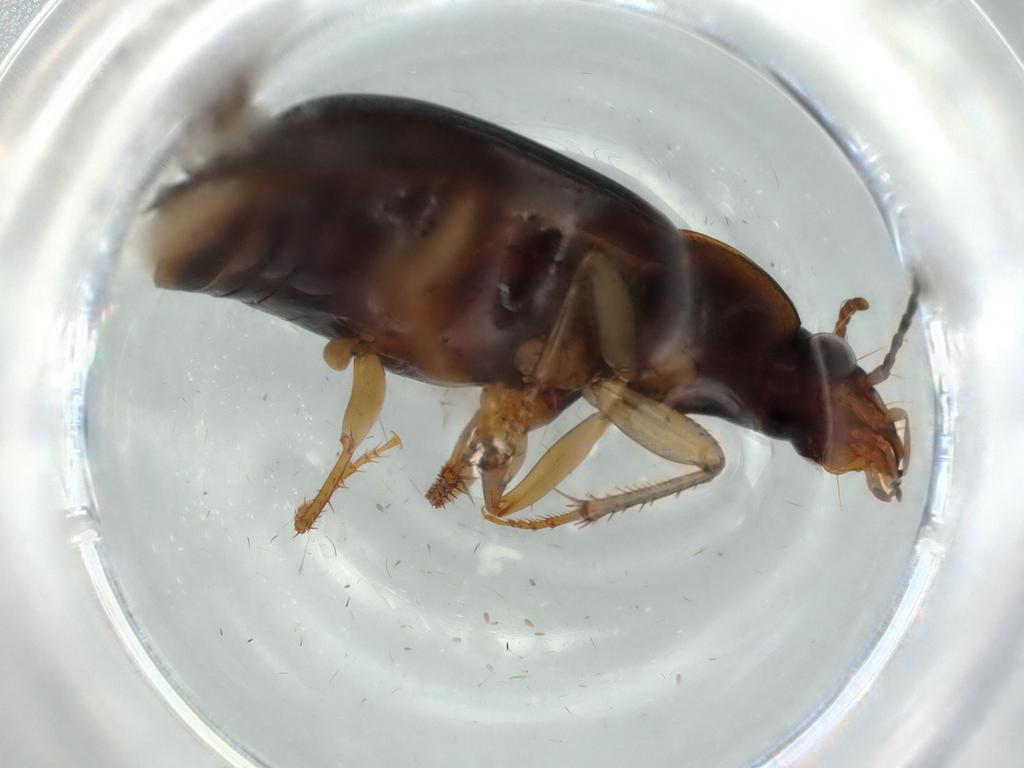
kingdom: Animalia
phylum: Arthropoda
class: Insecta
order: Coleoptera
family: Carabidae
